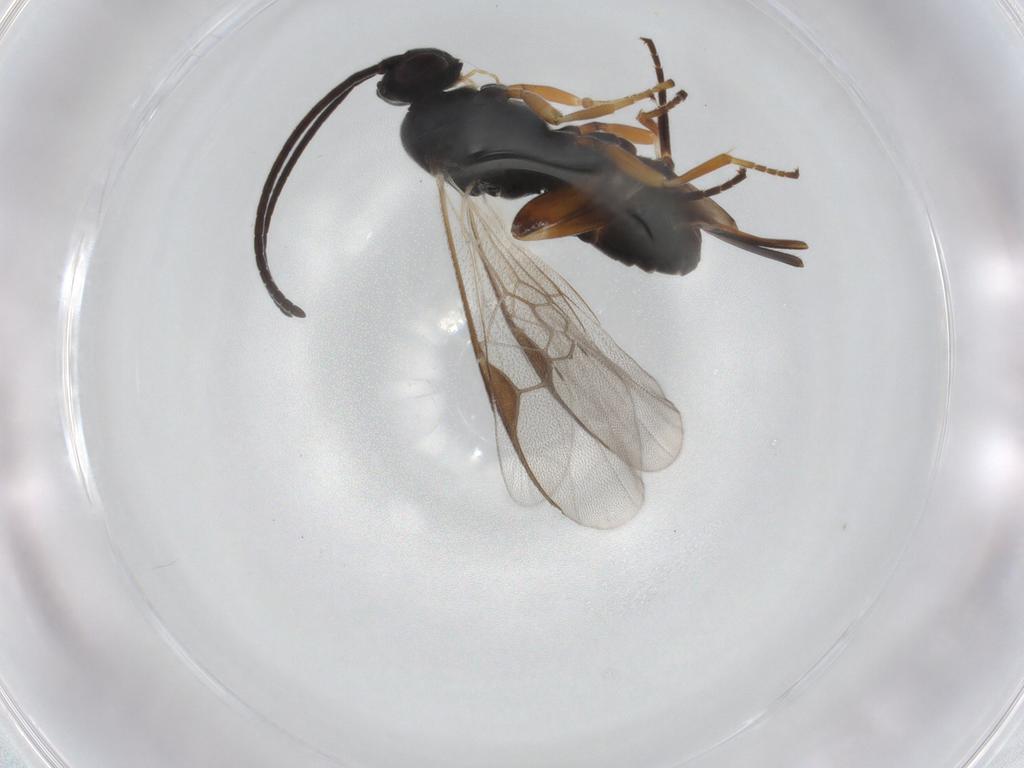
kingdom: Animalia
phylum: Arthropoda
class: Insecta
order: Hymenoptera
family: Braconidae
